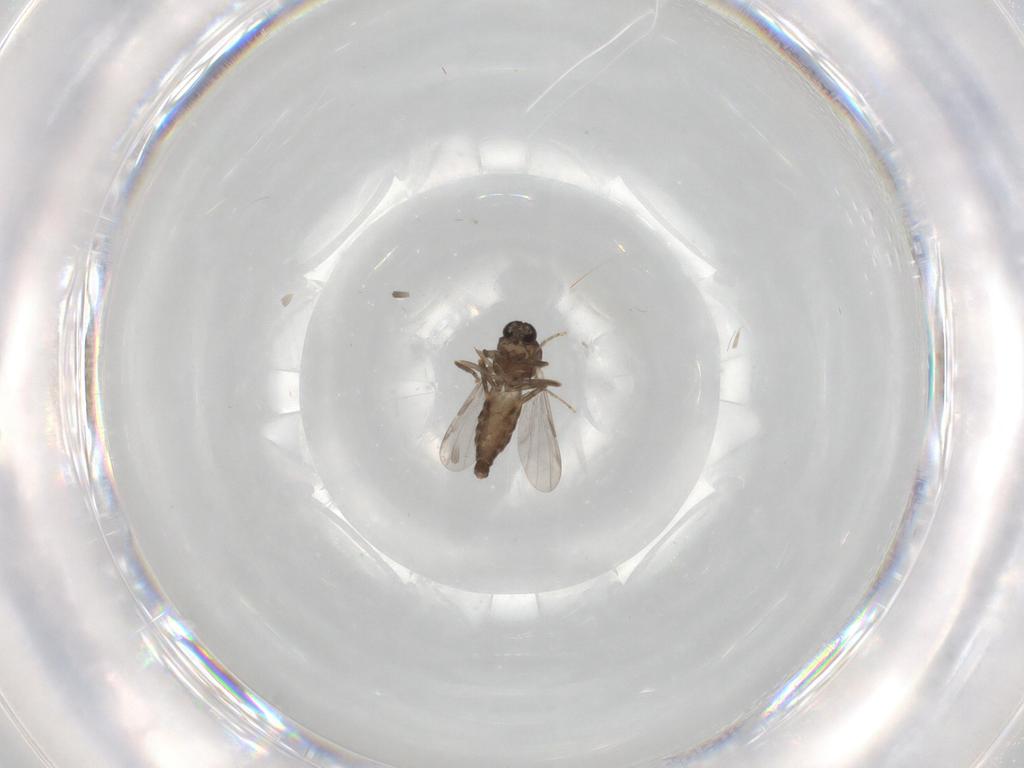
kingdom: Animalia
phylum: Arthropoda
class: Insecta
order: Diptera
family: Ceratopogonidae
